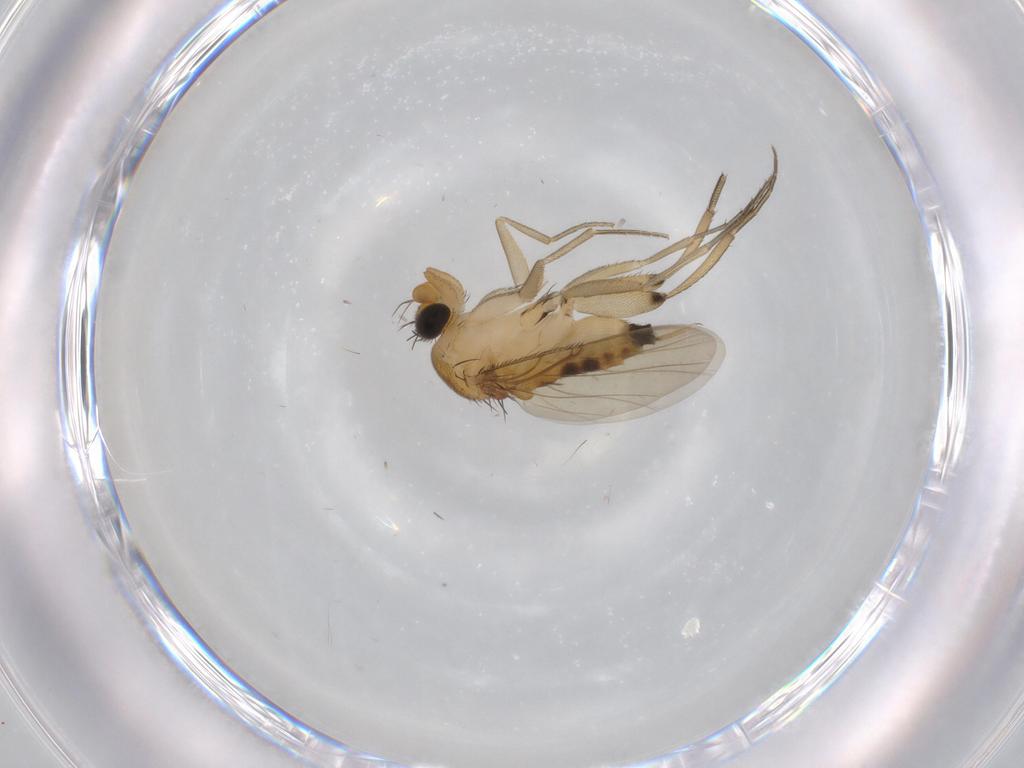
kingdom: Animalia
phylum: Arthropoda
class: Insecta
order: Diptera
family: Phoridae
